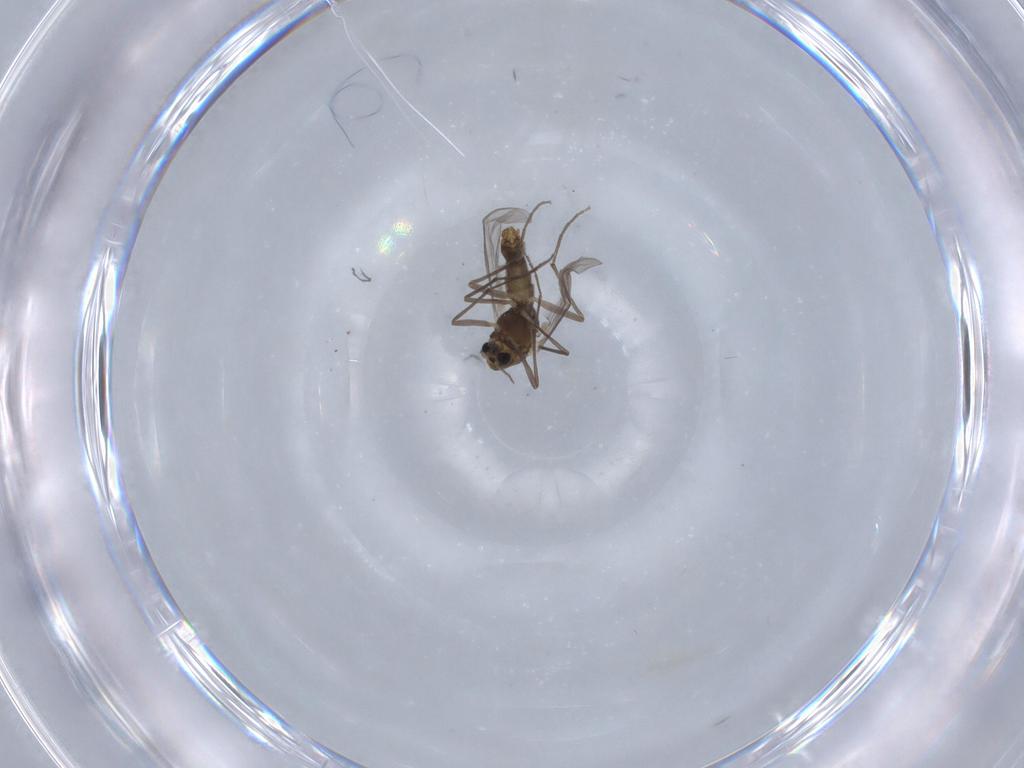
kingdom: Animalia
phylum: Arthropoda
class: Insecta
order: Diptera
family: Chironomidae
